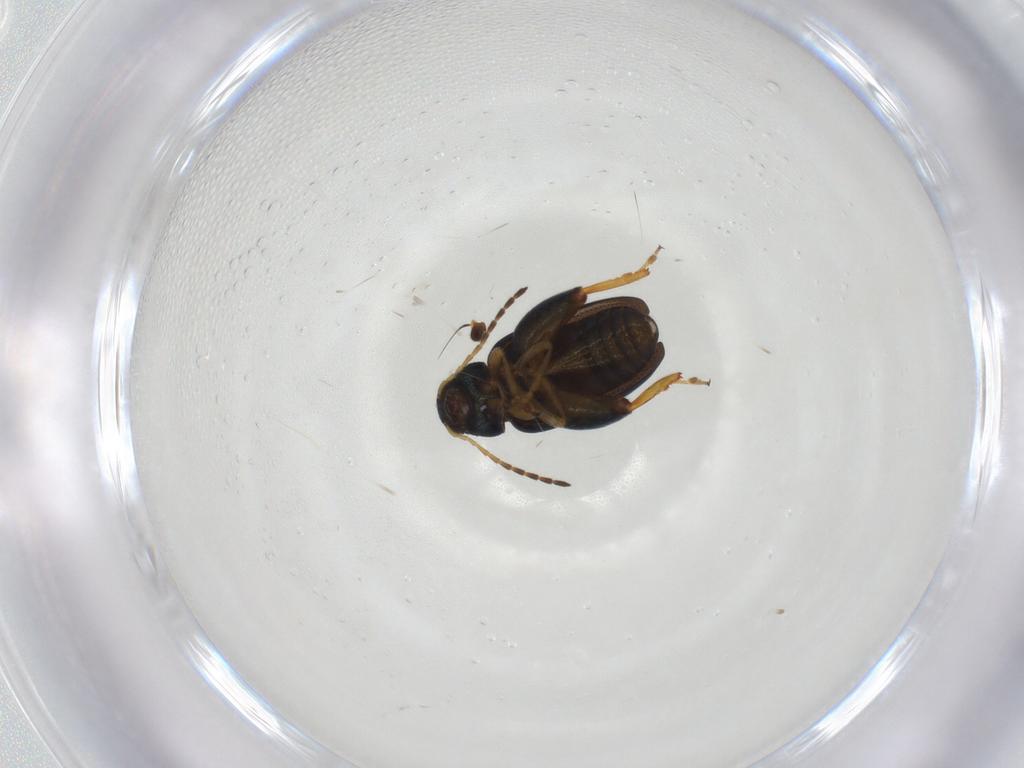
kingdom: Animalia
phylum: Arthropoda
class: Insecta
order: Coleoptera
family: Chrysomelidae
